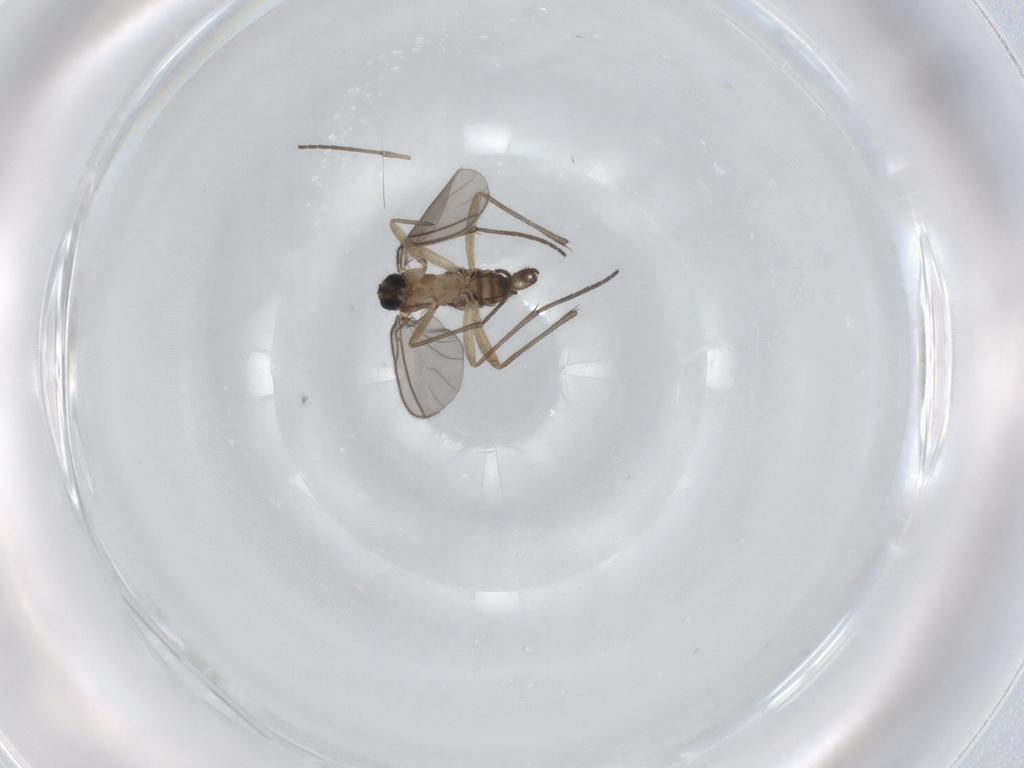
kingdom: Animalia
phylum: Arthropoda
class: Insecta
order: Diptera
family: Sciaridae
